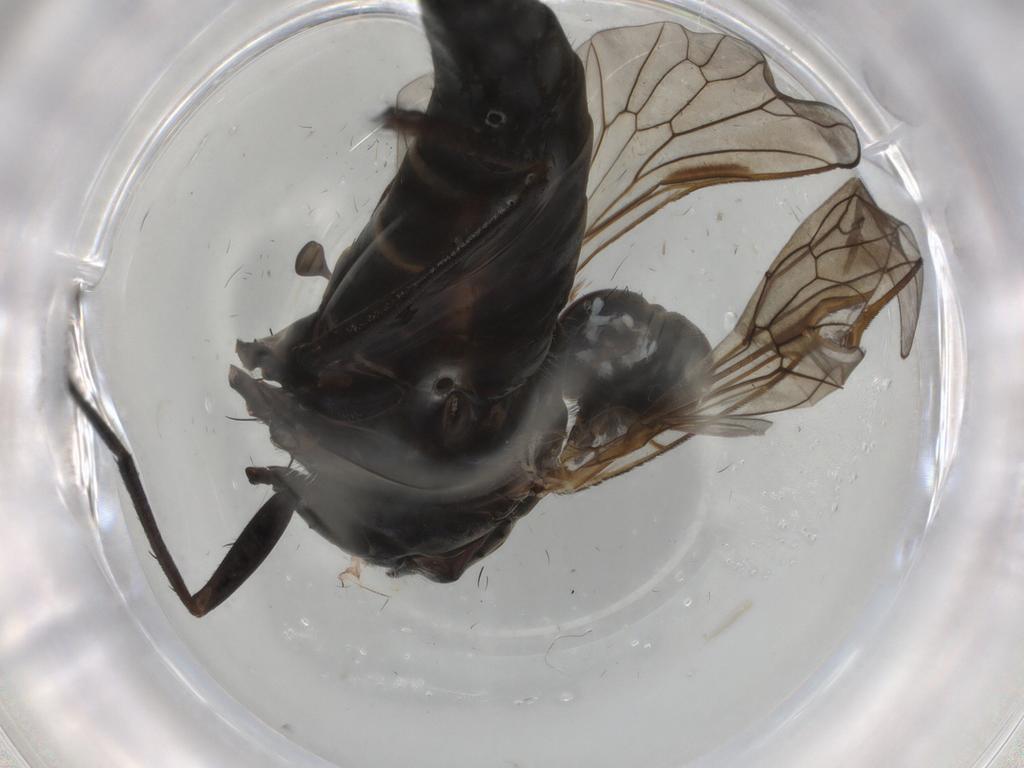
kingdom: Animalia
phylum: Arthropoda
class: Insecta
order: Diptera
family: Therevidae
